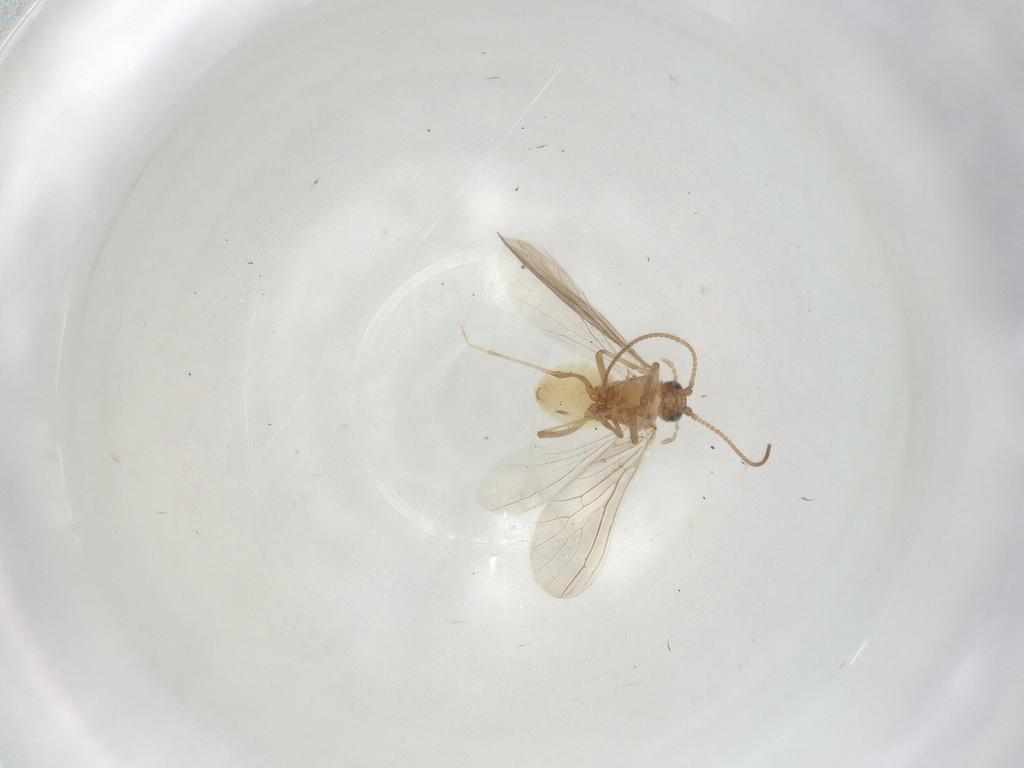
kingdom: Animalia
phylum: Arthropoda
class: Insecta
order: Neuroptera
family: Coniopterygidae
